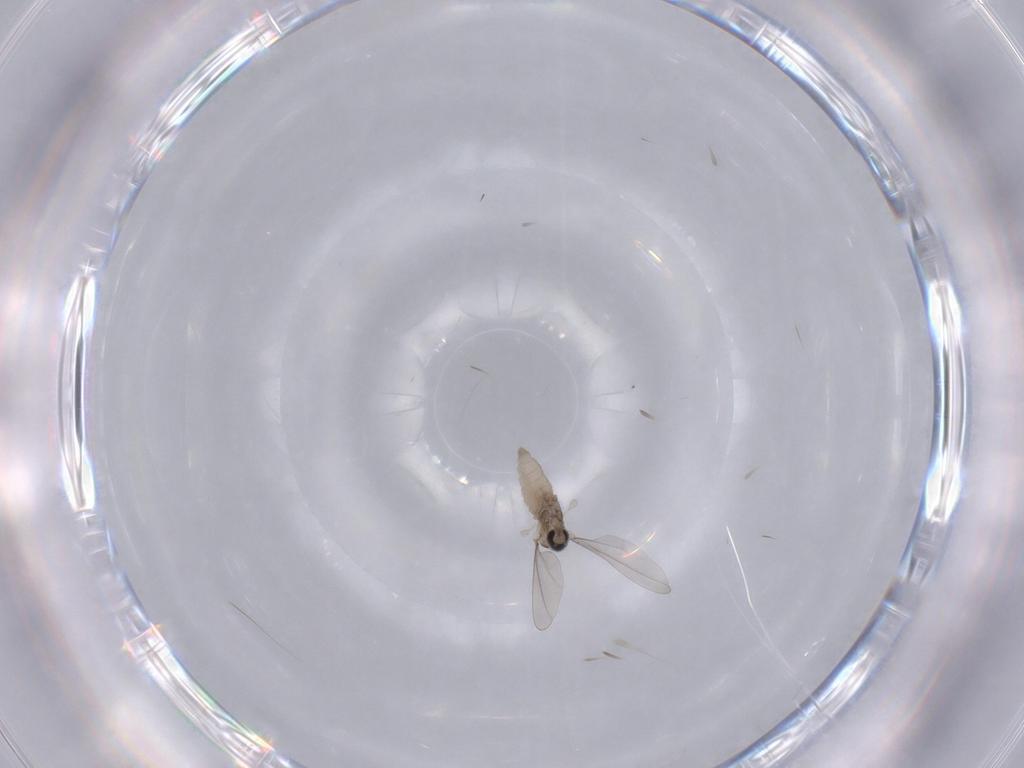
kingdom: Animalia
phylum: Arthropoda
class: Insecta
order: Diptera
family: Cecidomyiidae
